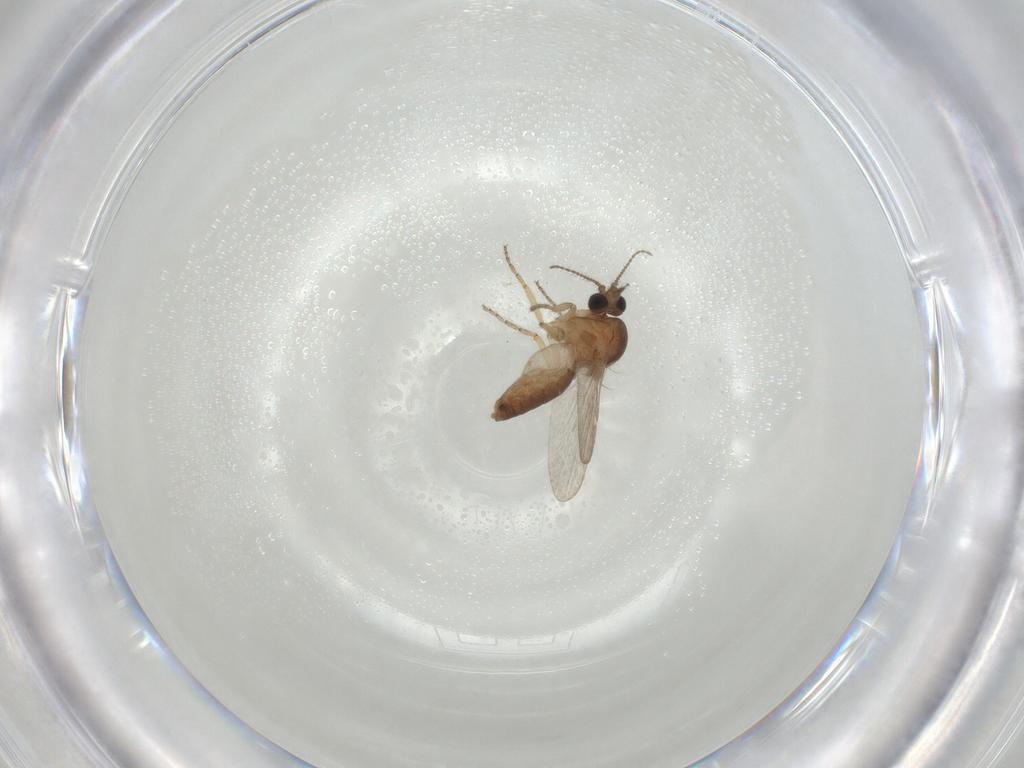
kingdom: Animalia
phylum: Arthropoda
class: Insecta
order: Diptera
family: Ceratopogonidae
